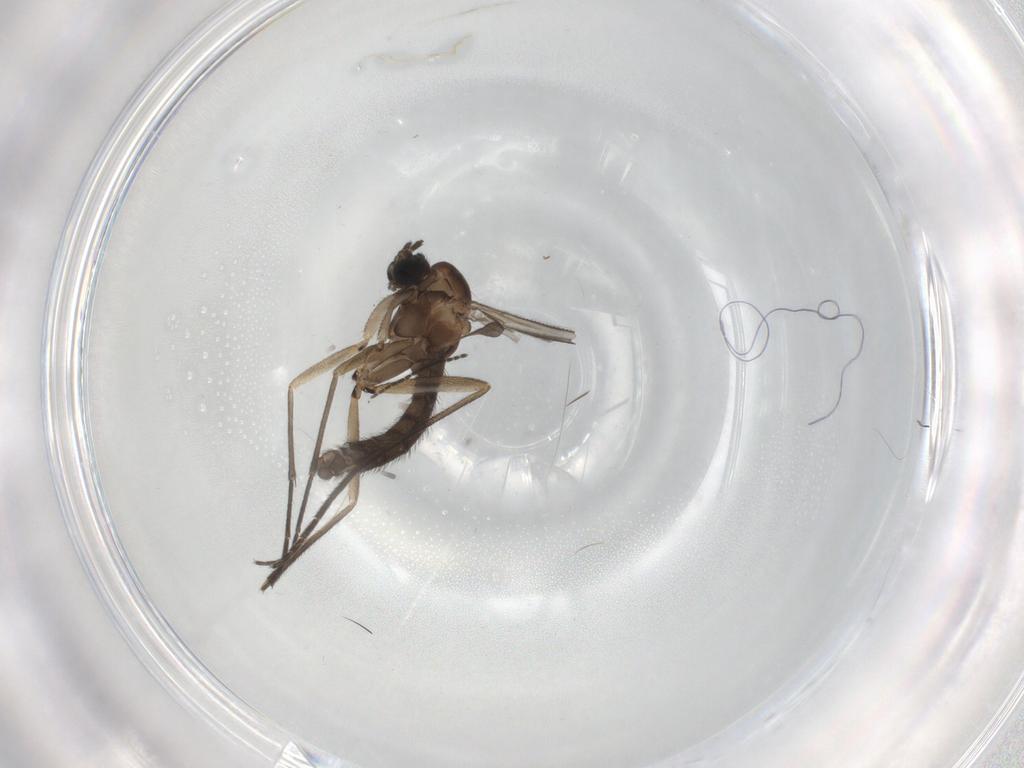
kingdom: Animalia
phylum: Arthropoda
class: Insecta
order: Diptera
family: Sciaridae
